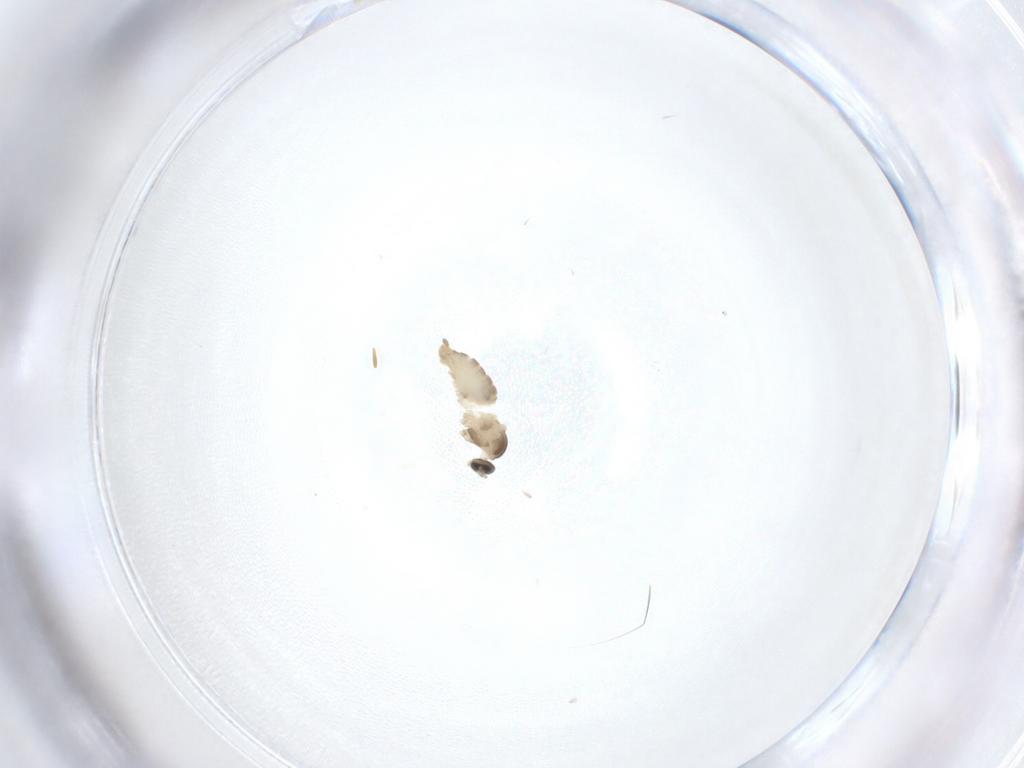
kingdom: Animalia
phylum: Arthropoda
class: Insecta
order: Diptera
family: Cecidomyiidae
